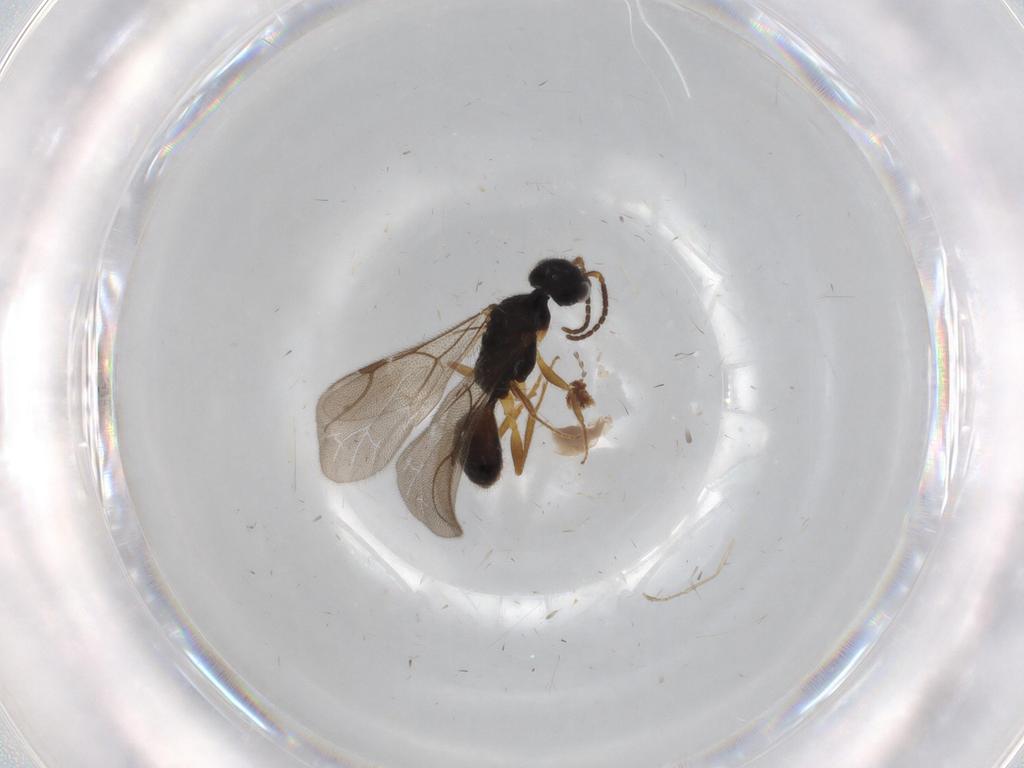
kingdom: Animalia
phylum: Arthropoda
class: Insecta
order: Hymenoptera
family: Bethylidae
